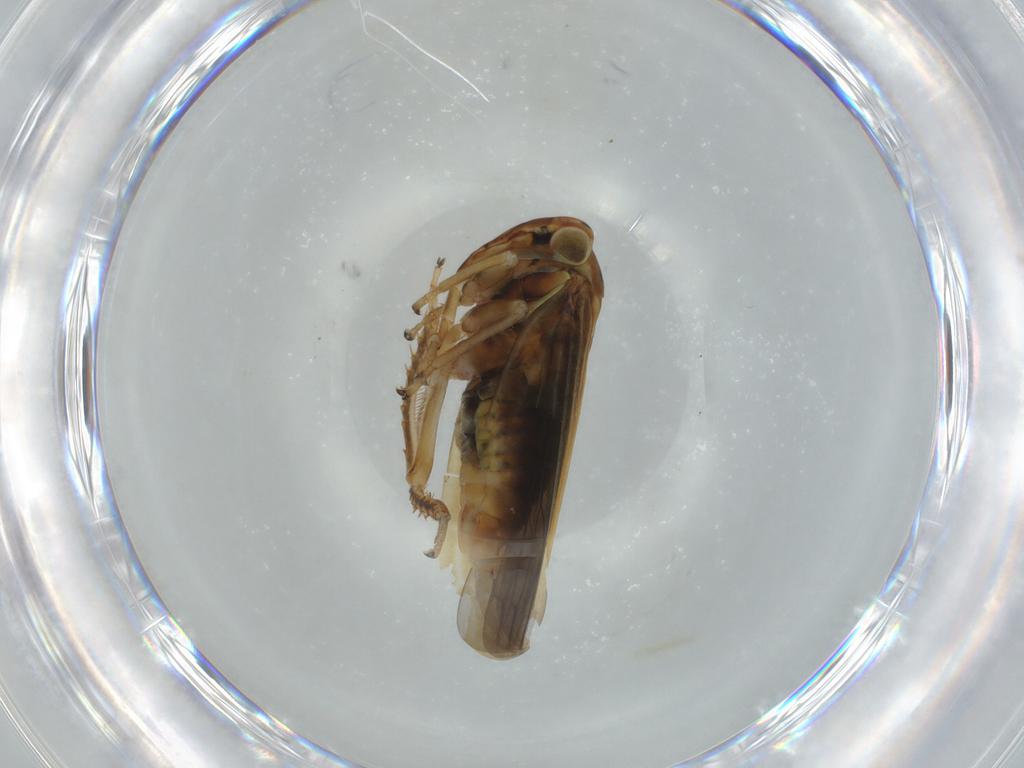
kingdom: Animalia
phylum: Arthropoda
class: Insecta
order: Hemiptera
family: Cicadellidae
